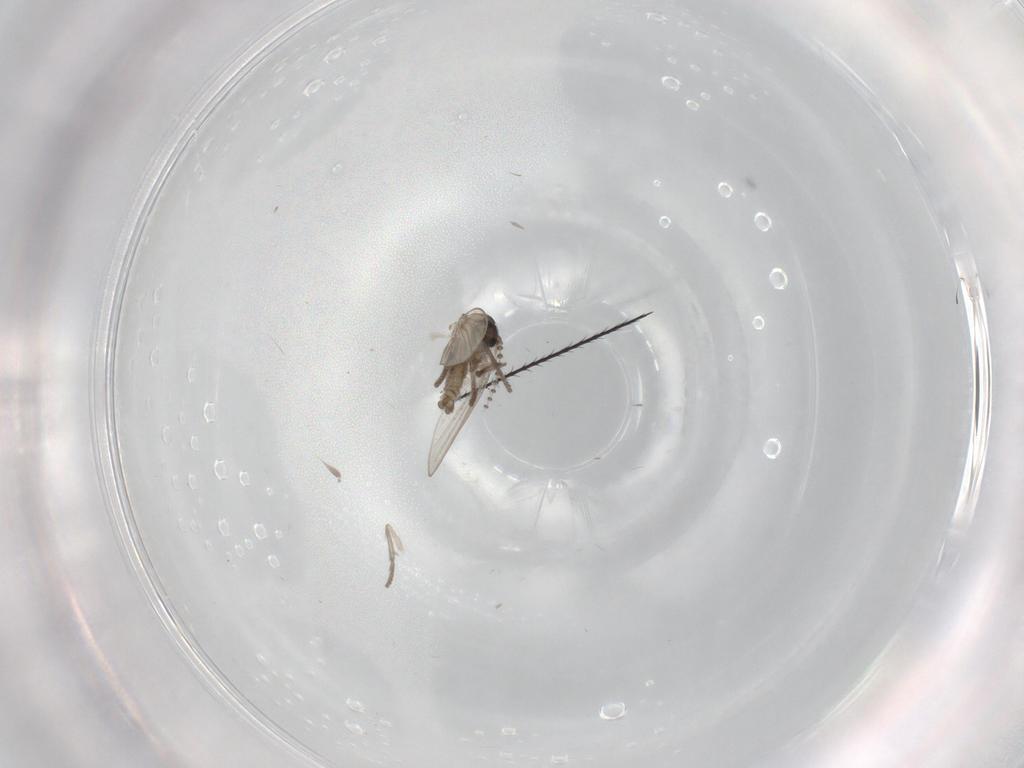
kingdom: Animalia
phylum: Arthropoda
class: Insecta
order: Diptera
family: Psychodidae
